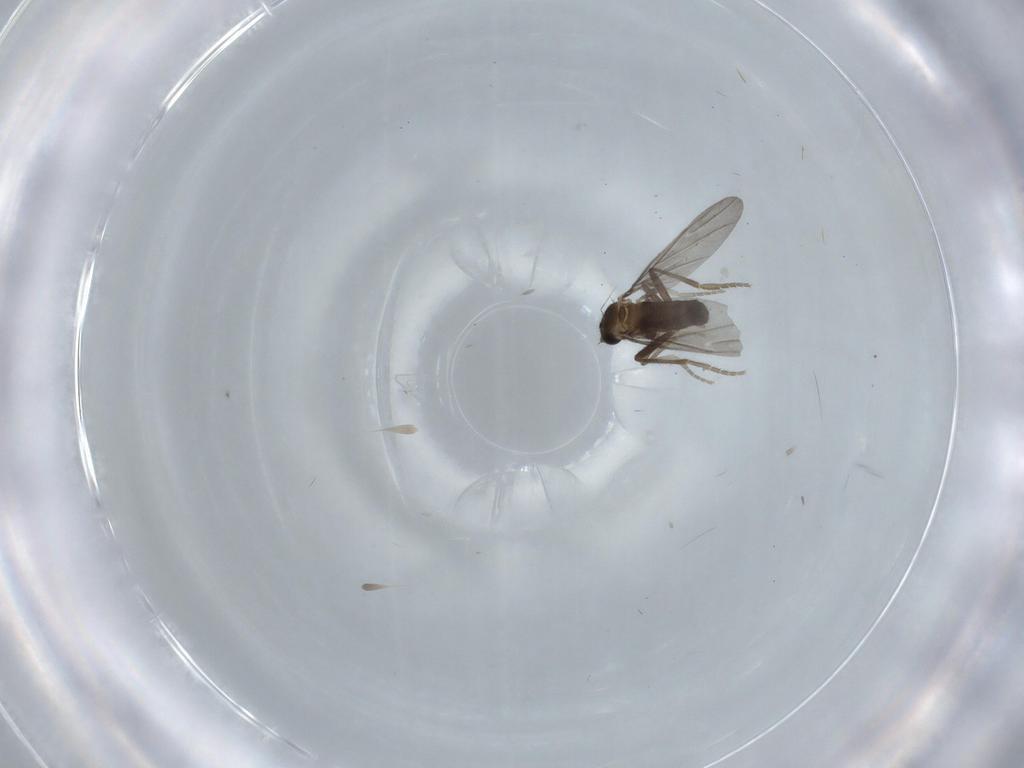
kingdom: Animalia
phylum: Arthropoda
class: Insecta
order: Diptera
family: Phoridae
